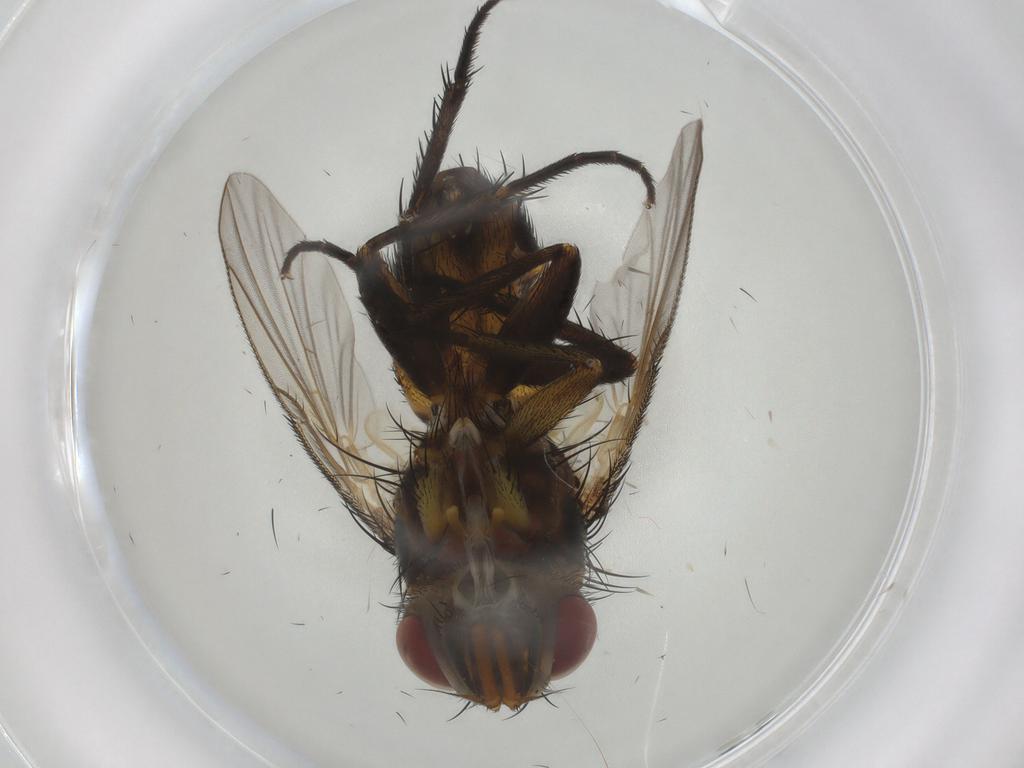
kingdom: Animalia
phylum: Arthropoda
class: Insecta
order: Diptera
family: Tachinidae
